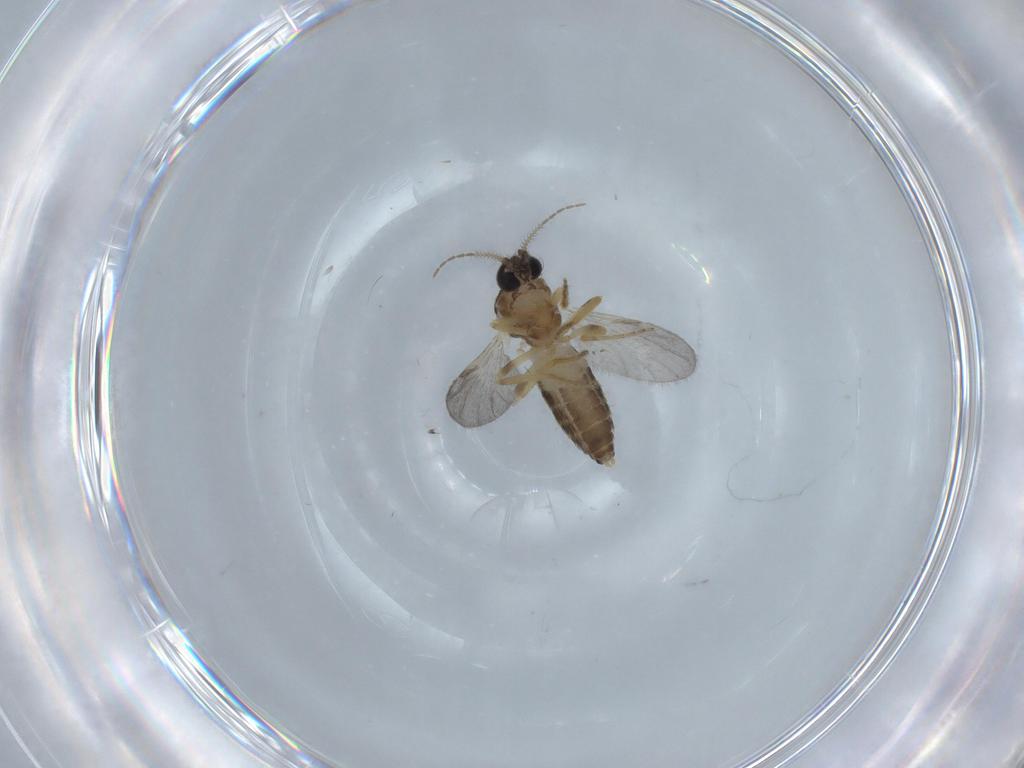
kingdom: Animalia
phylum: Arthropoda
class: Insecta
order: Diptera
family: Ceratopogonidae
